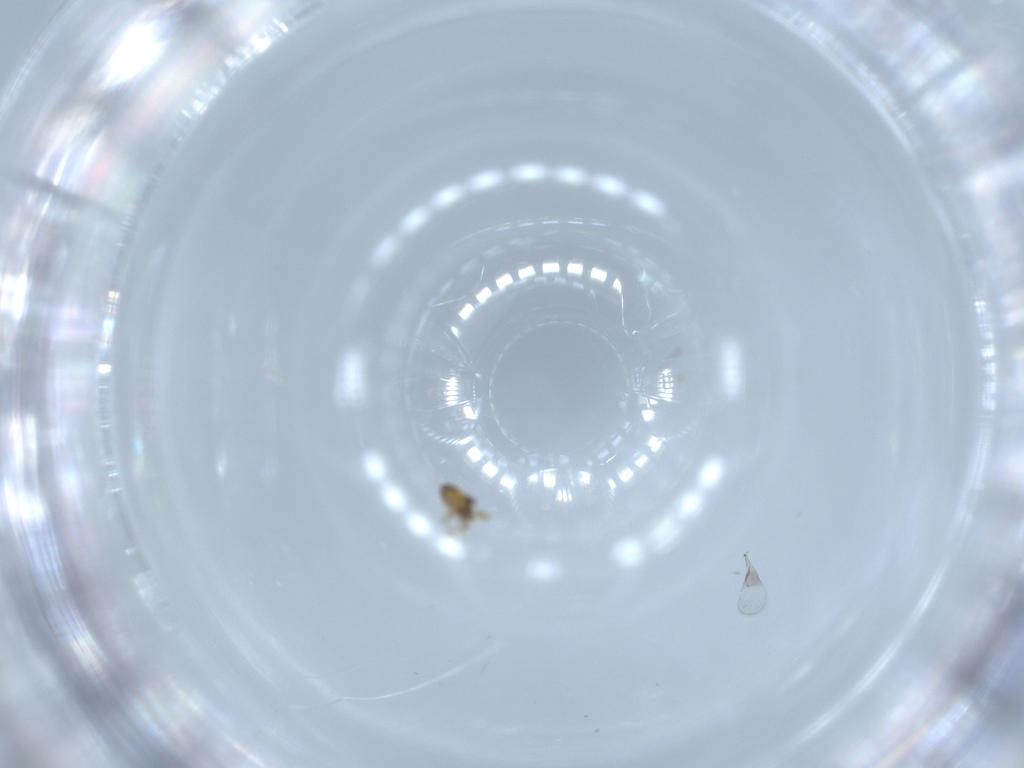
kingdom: Animalia
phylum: Arthropoda
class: Insecta
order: Hymenoptera
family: Trichogrammatidae
